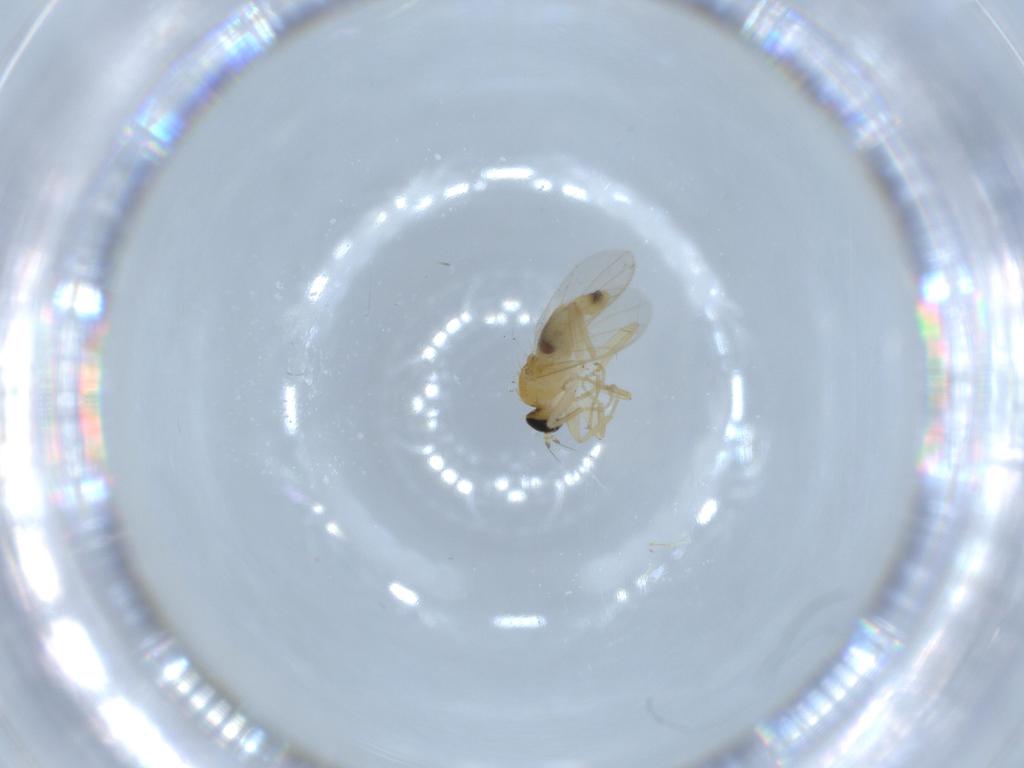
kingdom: Animalia
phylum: Arthropoda
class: Insecta
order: Diptera
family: Hybotidae
